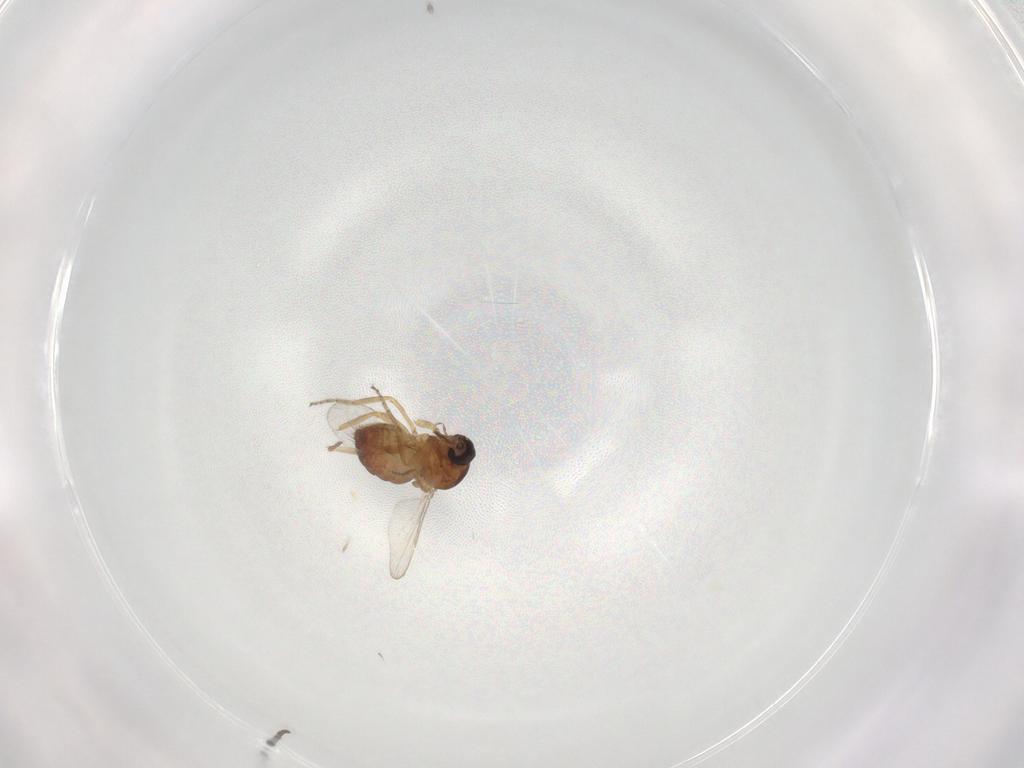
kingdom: Animalia
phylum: Arthropoda
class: Insecta
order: Diptera
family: Ceratopogonidae
